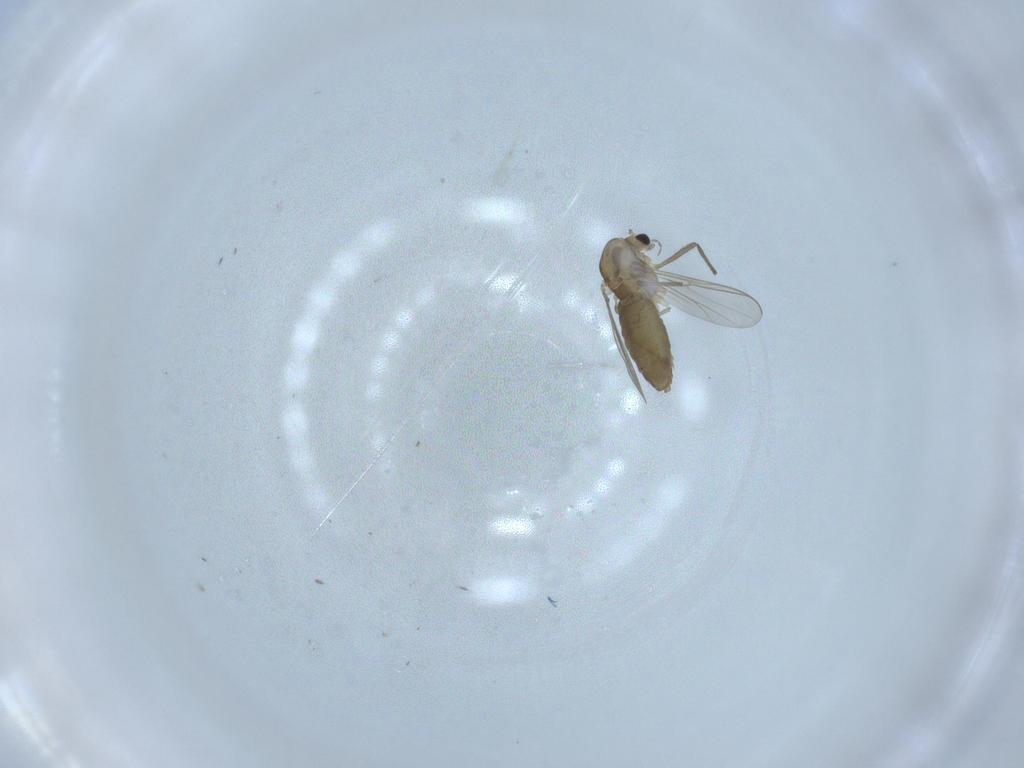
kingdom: Animalia
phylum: Arthropoda
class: Insecta
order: Diptera
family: Chironomidae
